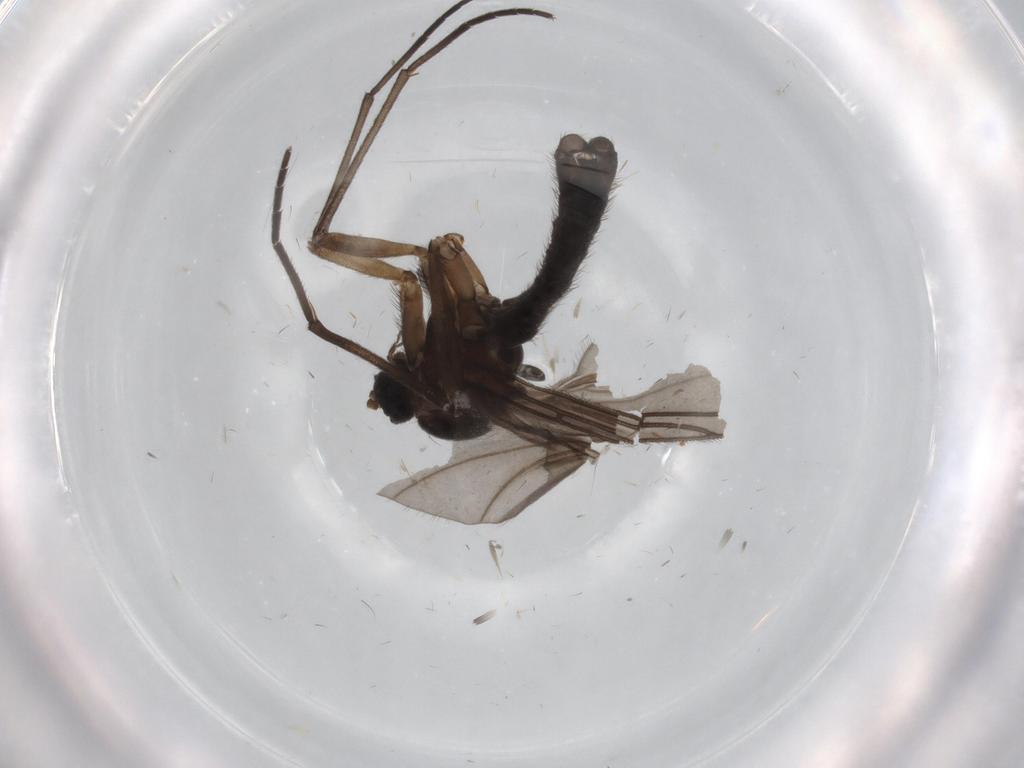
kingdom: Animalia
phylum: Arthropoda
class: Insecta
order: Diptera
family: Sciaridae
